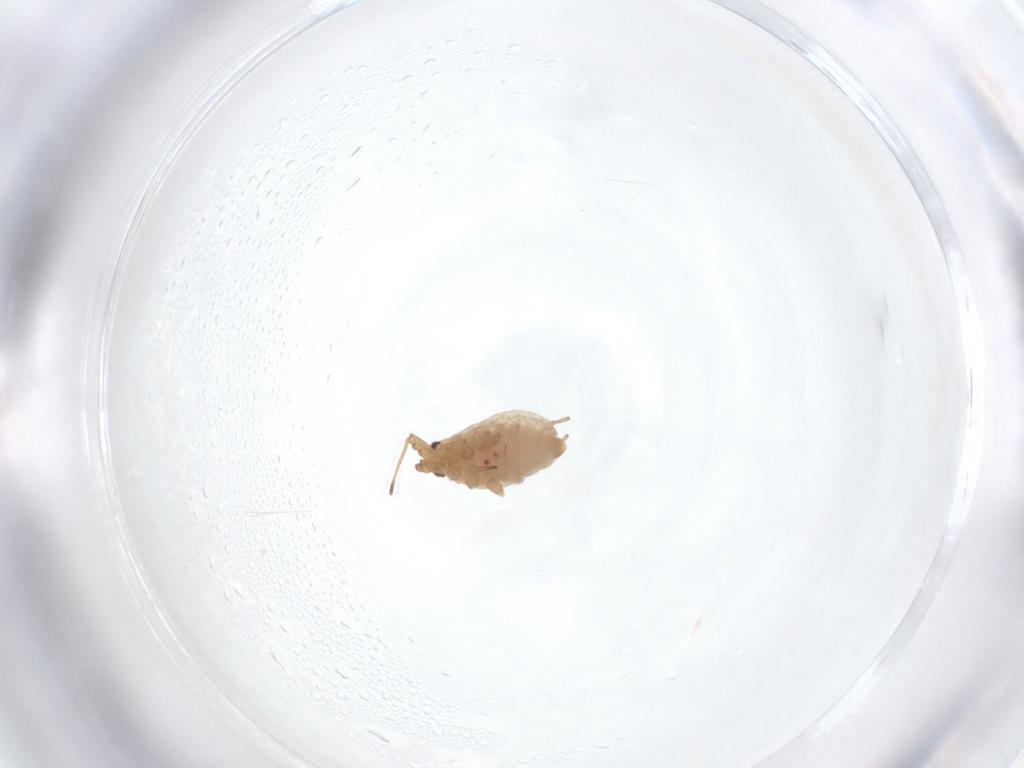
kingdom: Animalia
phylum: Arthropoda
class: Insecta
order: Hemiptera
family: Aphididae
